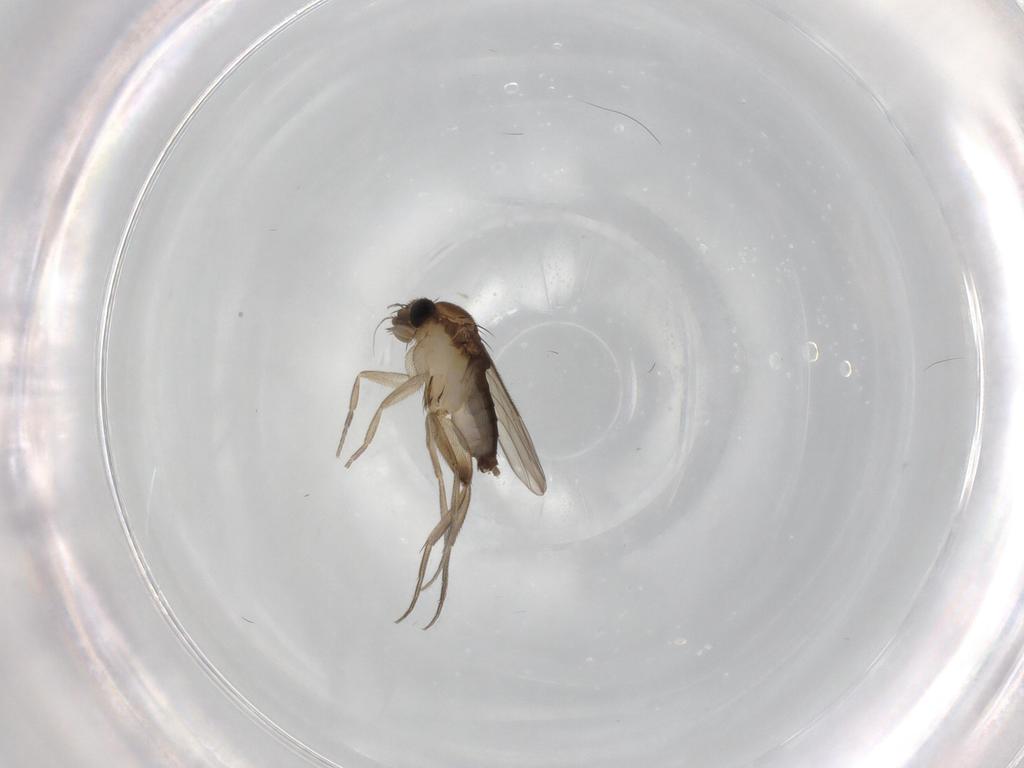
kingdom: Animalia
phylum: Arthropoda
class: Insecta
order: Diptera
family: Phoridae
